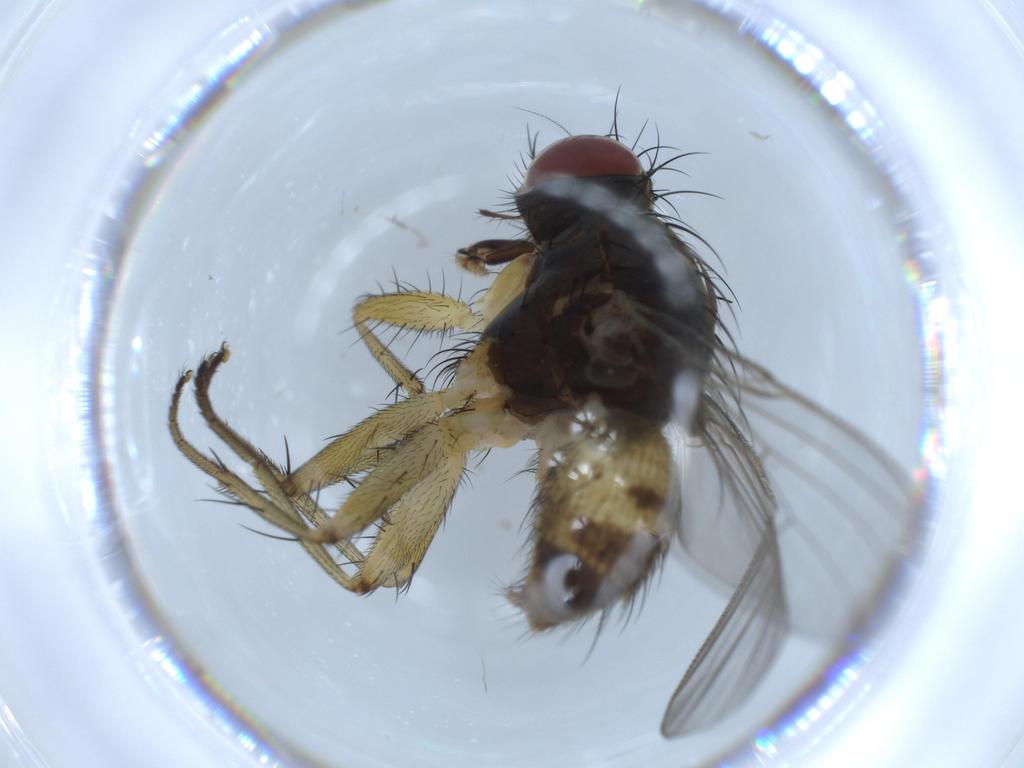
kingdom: Animalia
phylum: Arthropoda
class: Insecta
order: Diptera
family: Muscidae
